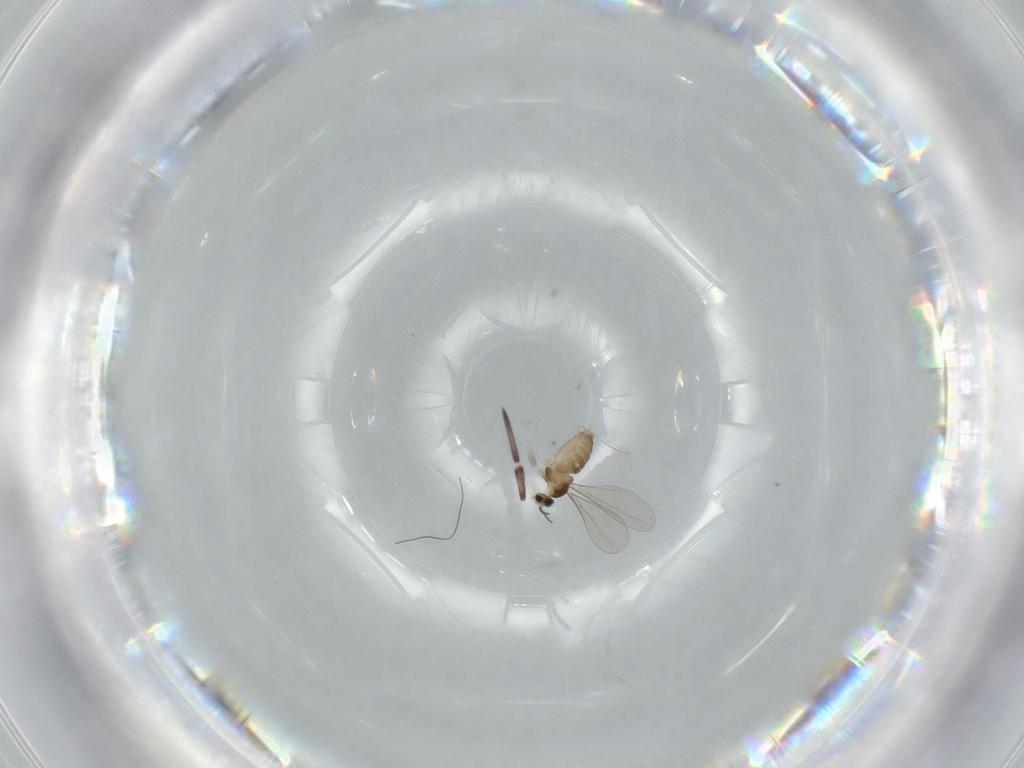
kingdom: Animalia
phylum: Arthropoda
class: Insecta
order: Diptera
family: Cecidomyiidae
